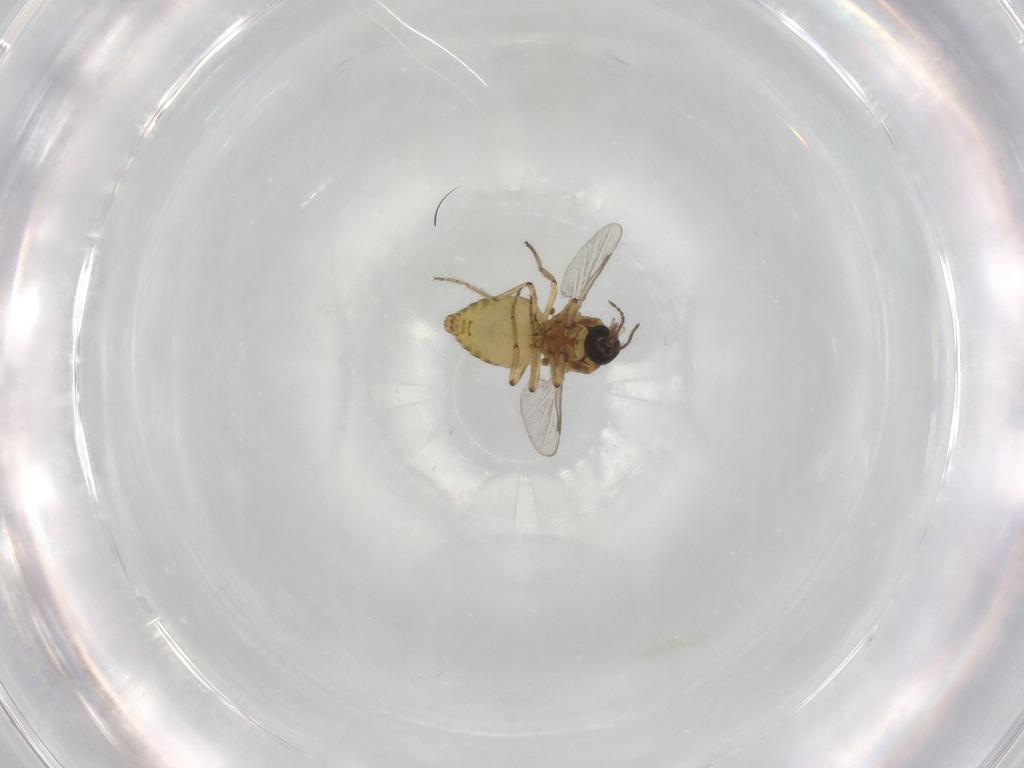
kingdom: Animalia
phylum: Arthropoda
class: Insecta
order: Diptera
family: Ceratopogonidae
